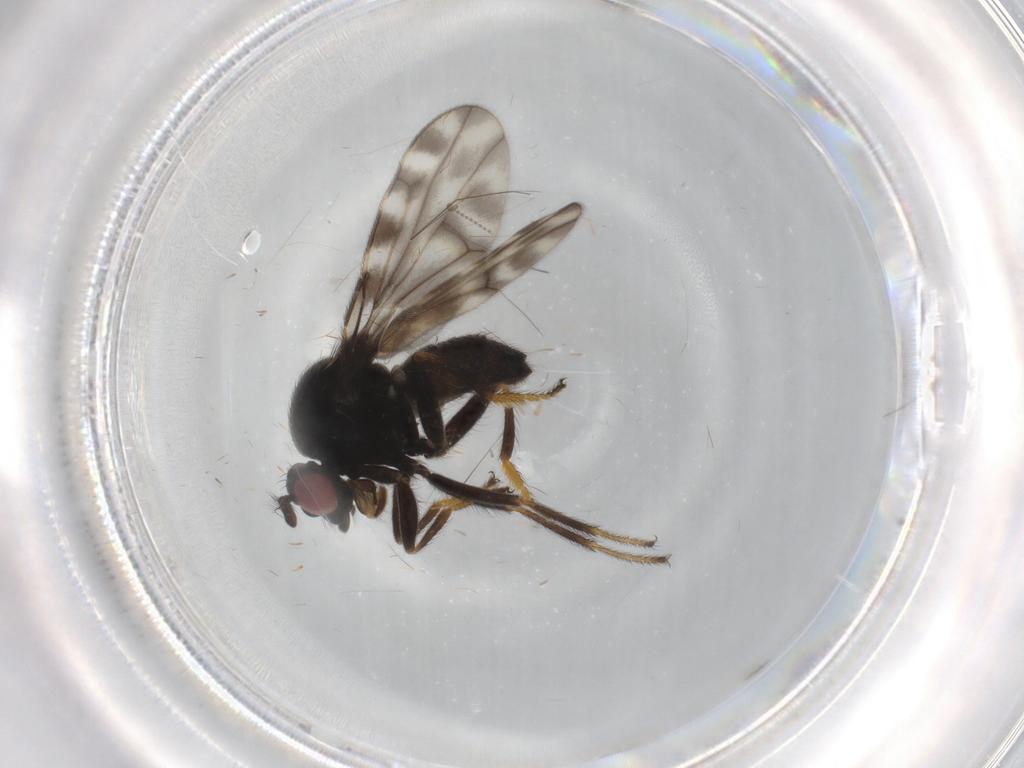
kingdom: Animalia
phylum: Arthropoda
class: Insecta
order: Diptera
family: Ephydridae
